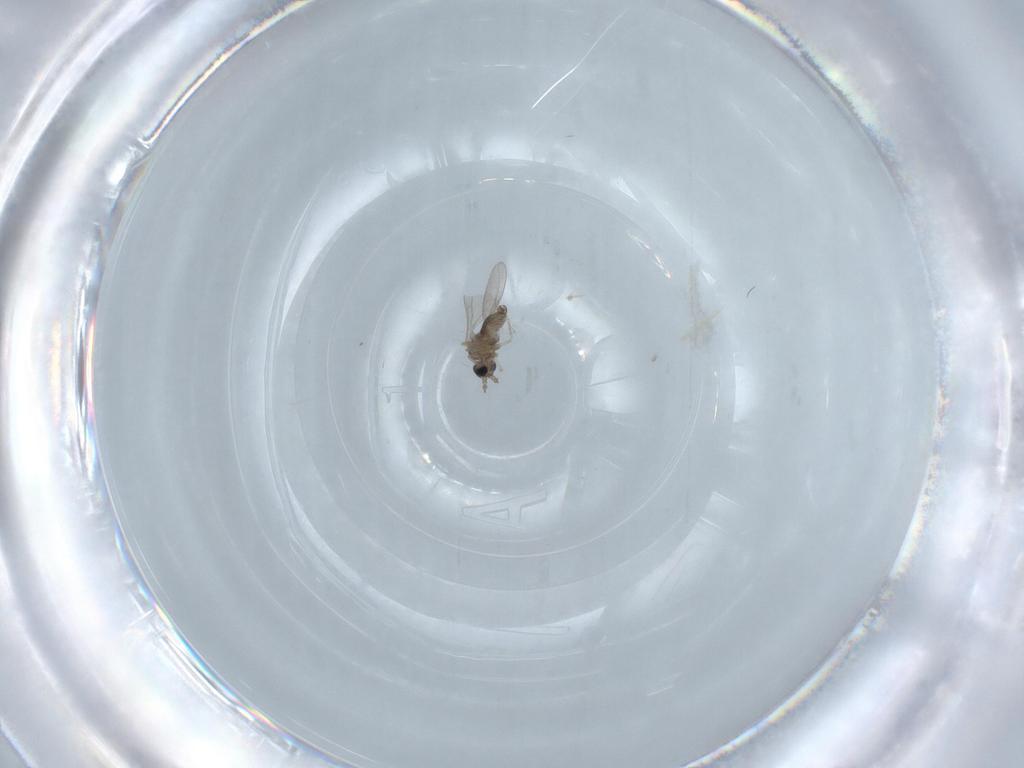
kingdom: Animalia
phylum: Arthropoda
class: Insecta
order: Diptera
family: Cecidomyiidae
